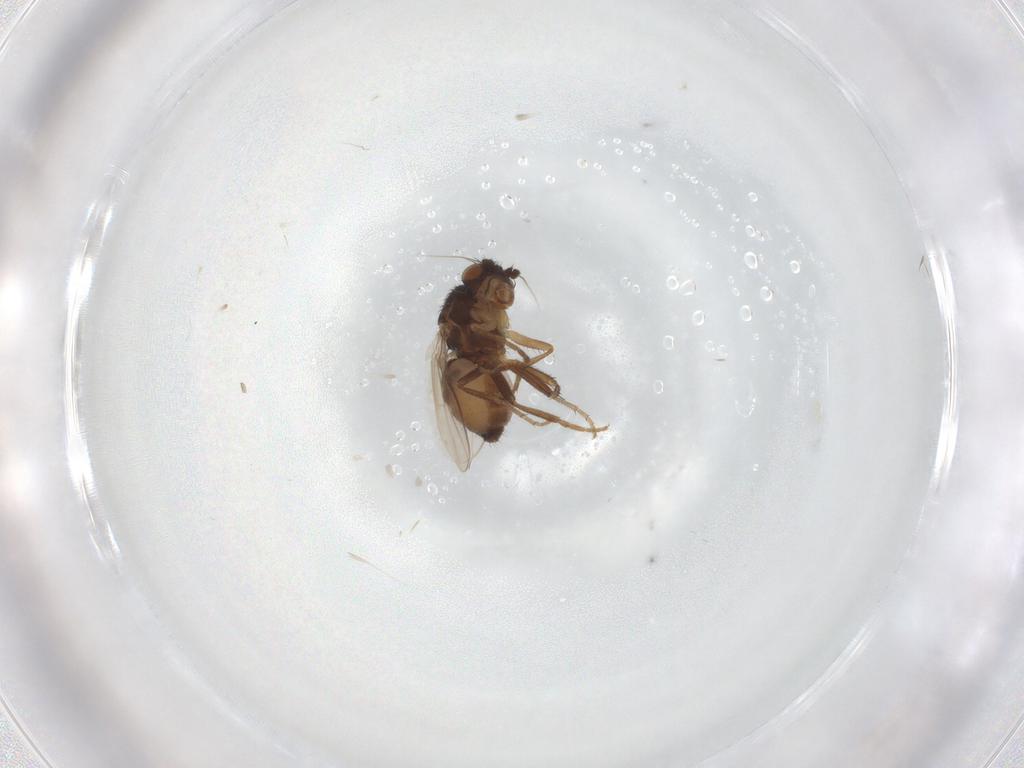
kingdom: Animalia
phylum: Arthropoda
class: Insecta
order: Diptera
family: Sphaeroceridae
